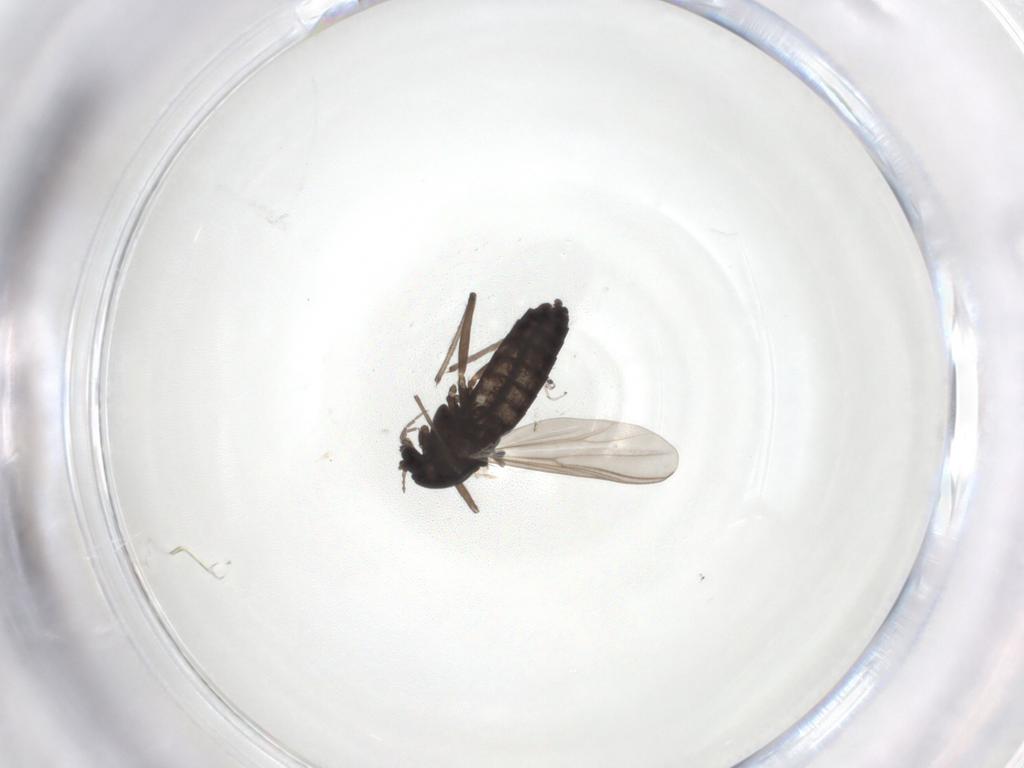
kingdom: Animalia
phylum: Arthropoda
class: Insecta
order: Diptera
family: Chironomidae
